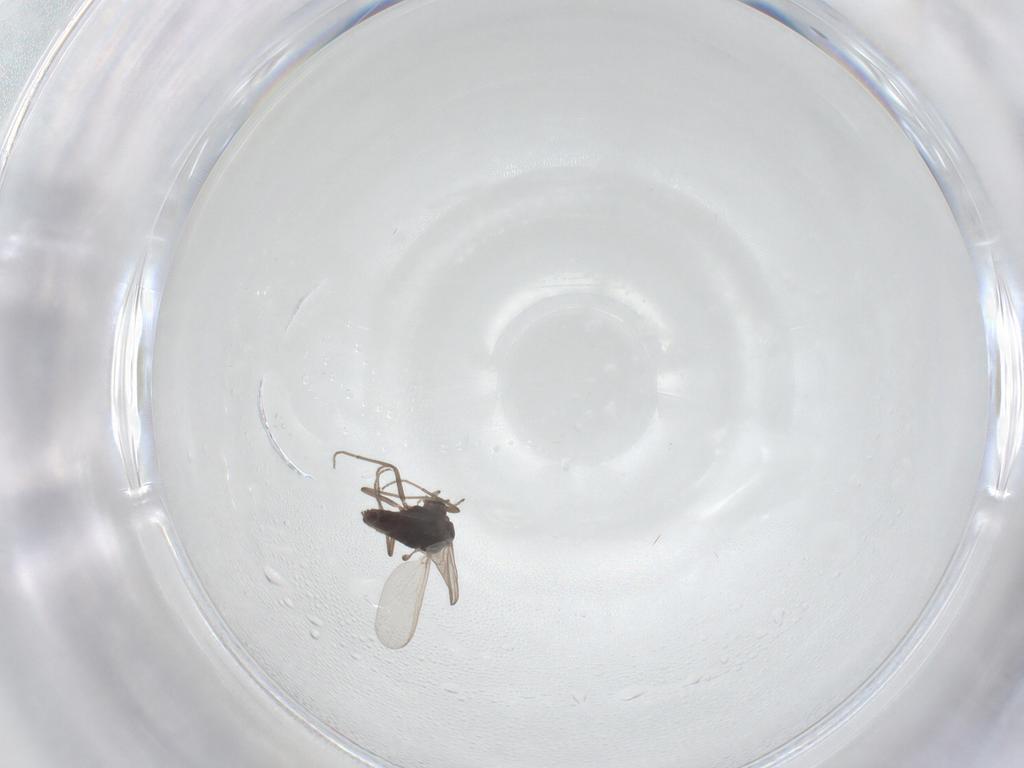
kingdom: Animalia
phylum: Arthropoda
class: Insecta
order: Diptera
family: Chironomidae
